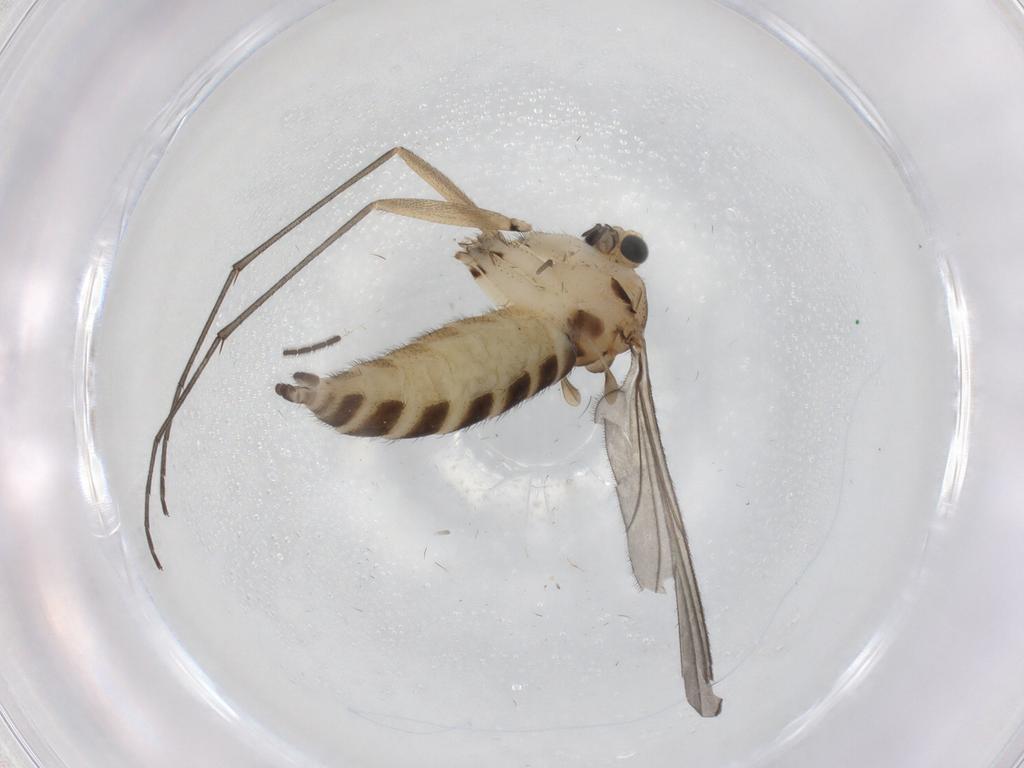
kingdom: Animalia
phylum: Arthropoda
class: Insecta
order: Diptera
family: Sciaridae
